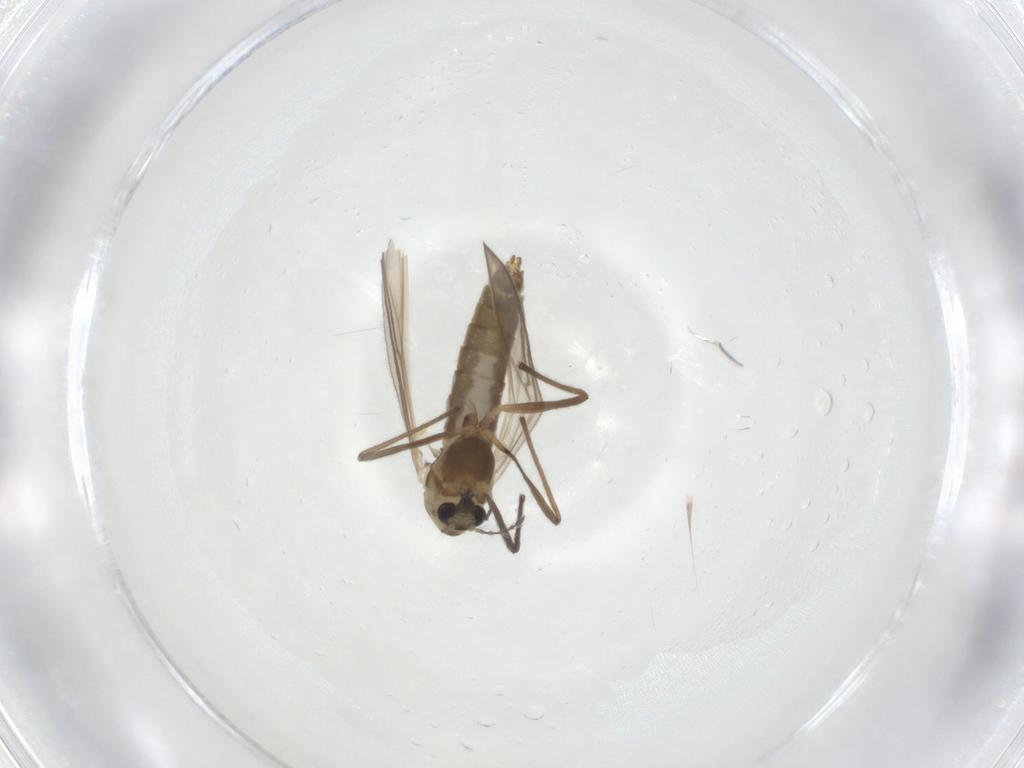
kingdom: Animalia
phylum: Arthropoda
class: Insecta
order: Diptera
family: Chironomidae
